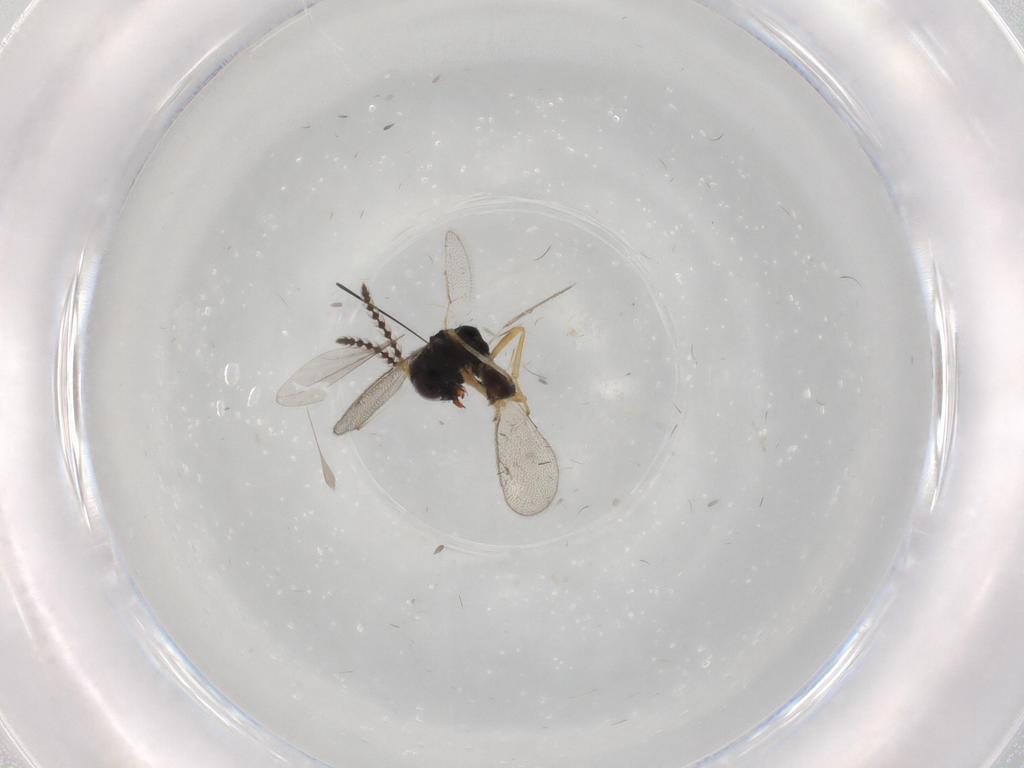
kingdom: Animalia
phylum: Arthropoda
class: Insecta
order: Hymenoptera
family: Pteromalidae
